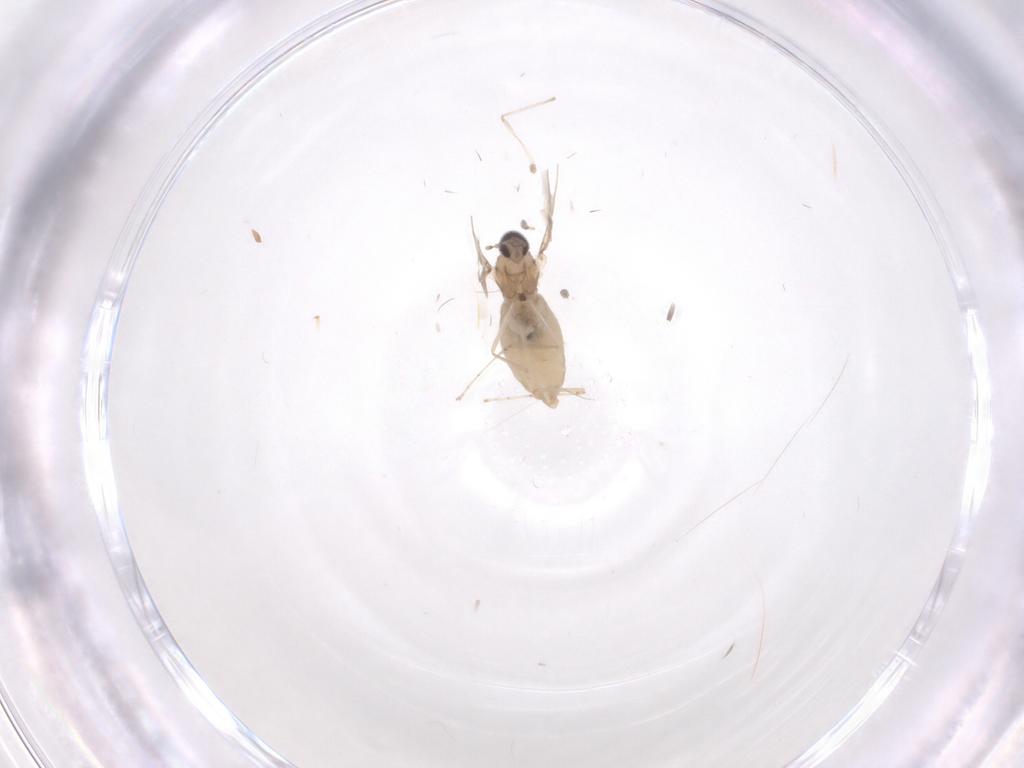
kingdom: Animalia
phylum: Arthropoda
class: Insecta
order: Diptera
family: Cecidomyiidae
